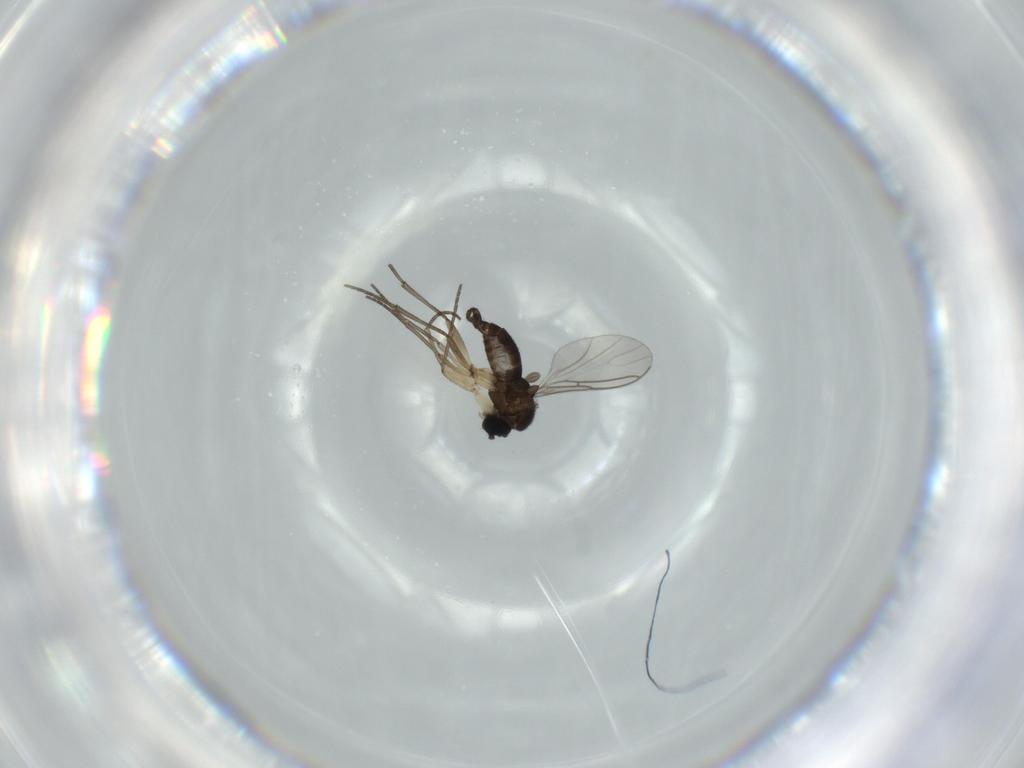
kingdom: Animalia
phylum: Arthropoda
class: Insecta
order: Diptera
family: Sciaridae
